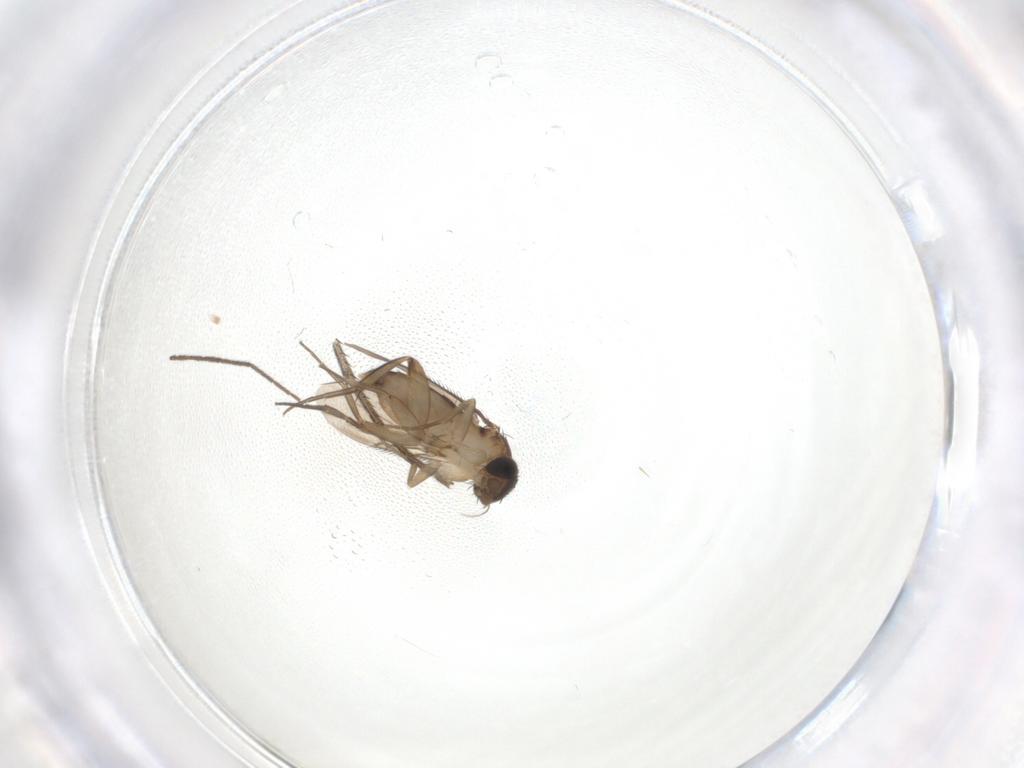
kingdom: Animalia
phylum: Arthropoda
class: Insecta
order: Diptera
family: Phoridae
